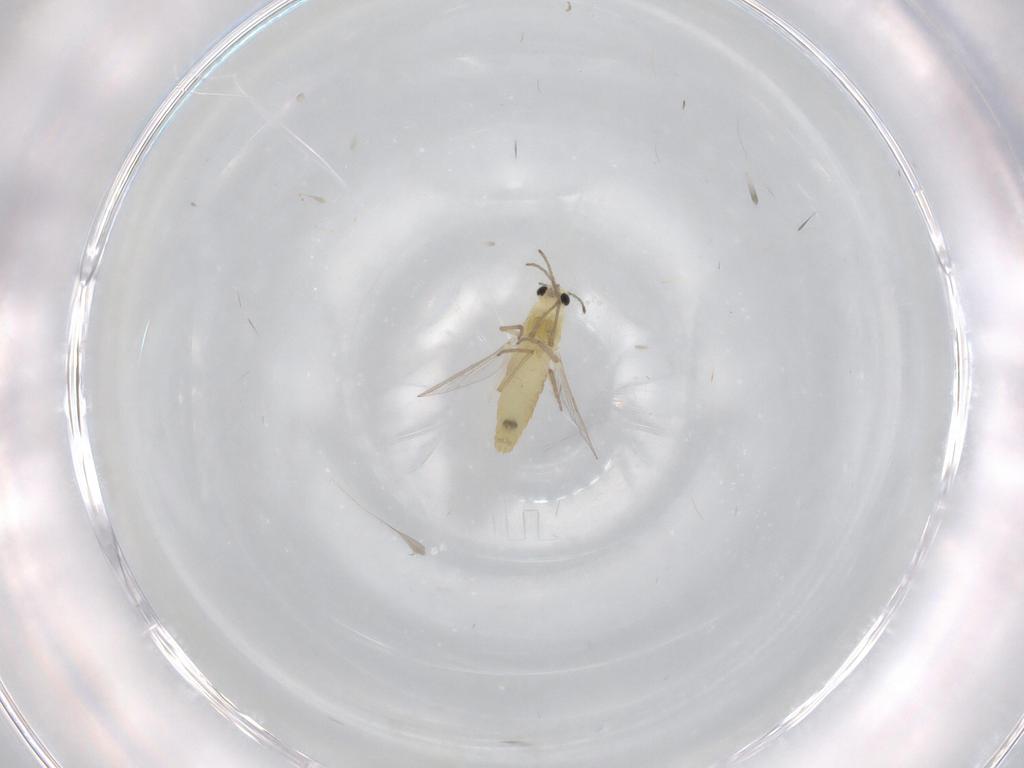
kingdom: Animalia
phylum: Arthropoda
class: Insecta
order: Diptera
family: Chironomidae
